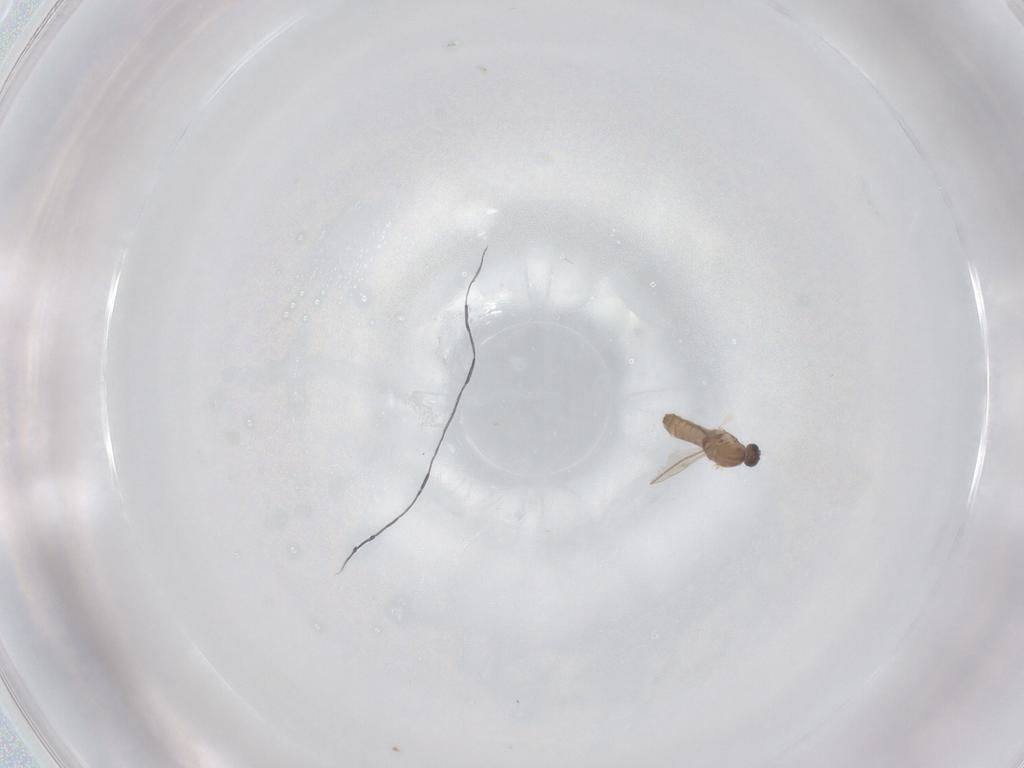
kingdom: Animalia
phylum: Arthropoda
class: Insecta
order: Diptera
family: Cecidomyiidae
